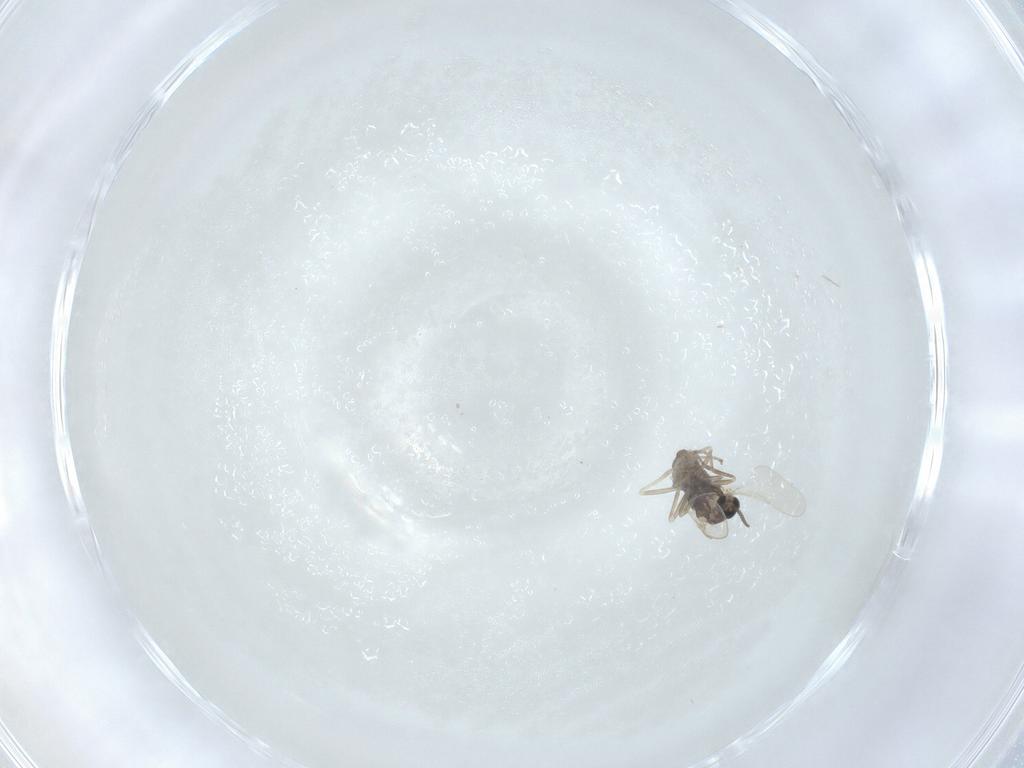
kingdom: Animalia
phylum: Arthropoda
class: Insecta
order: Diptera
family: Cecidomyiidae
